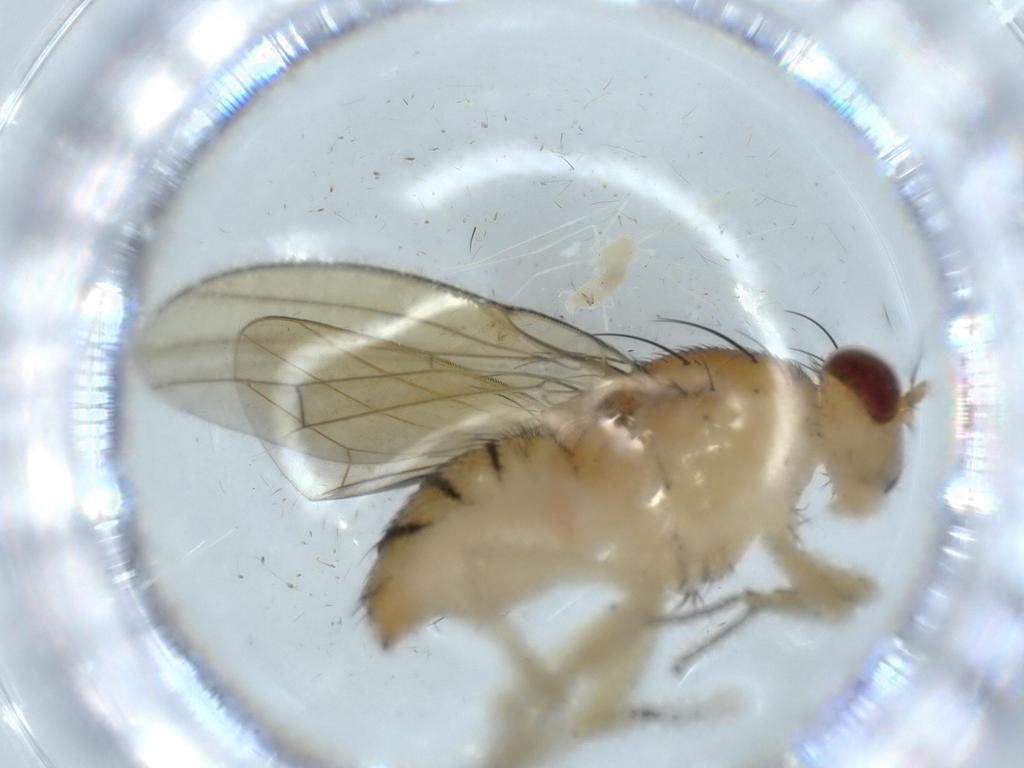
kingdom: Animalia
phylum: Arthropoda
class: Insecta
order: Diptera
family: Cecidomyiidae
